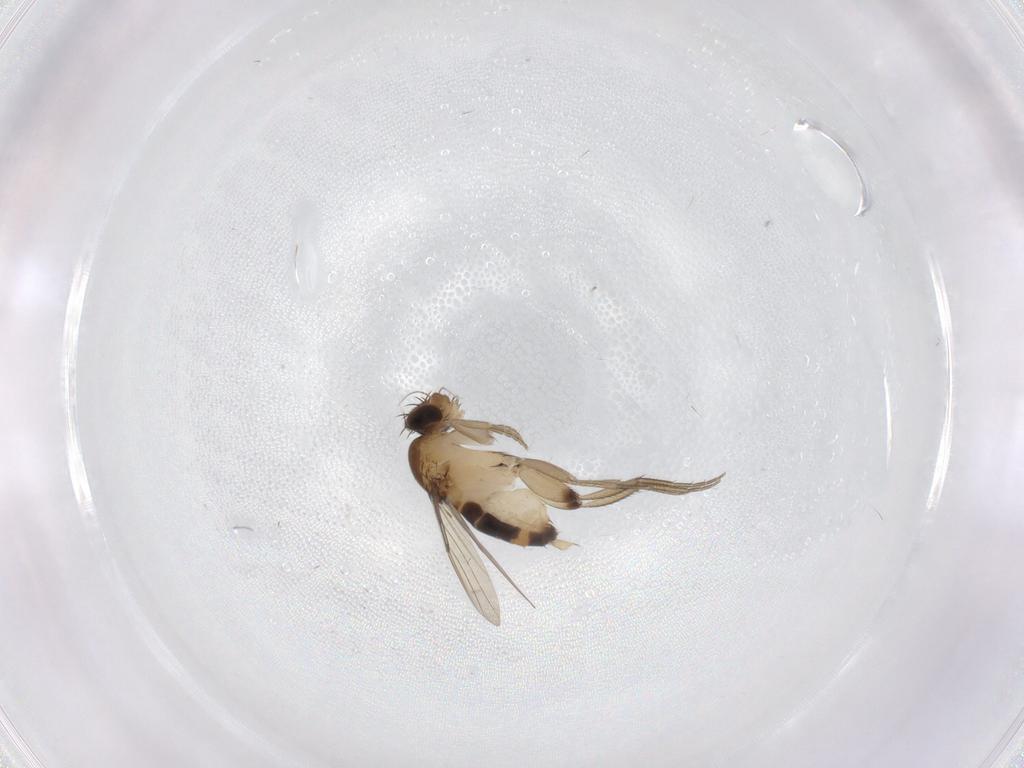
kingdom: Animalia
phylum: Arthropoda
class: Insecta
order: Diptera
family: Phoridae
